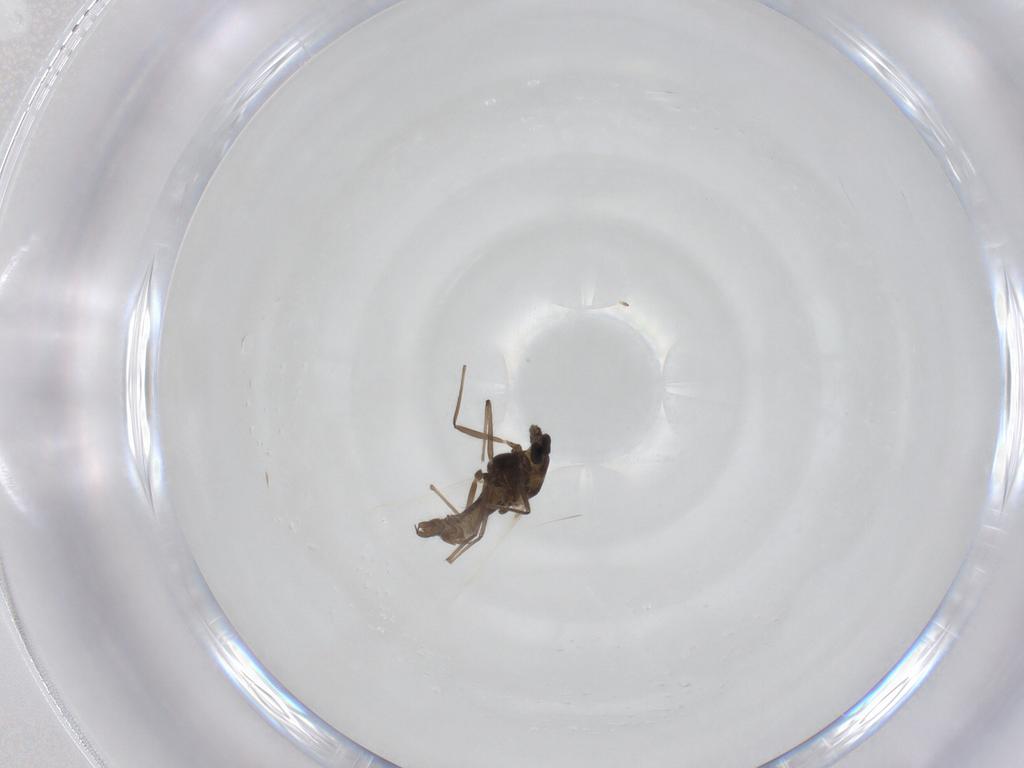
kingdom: Animalia
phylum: Arthropoda
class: Insecta
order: Diptera
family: Chironomidae
